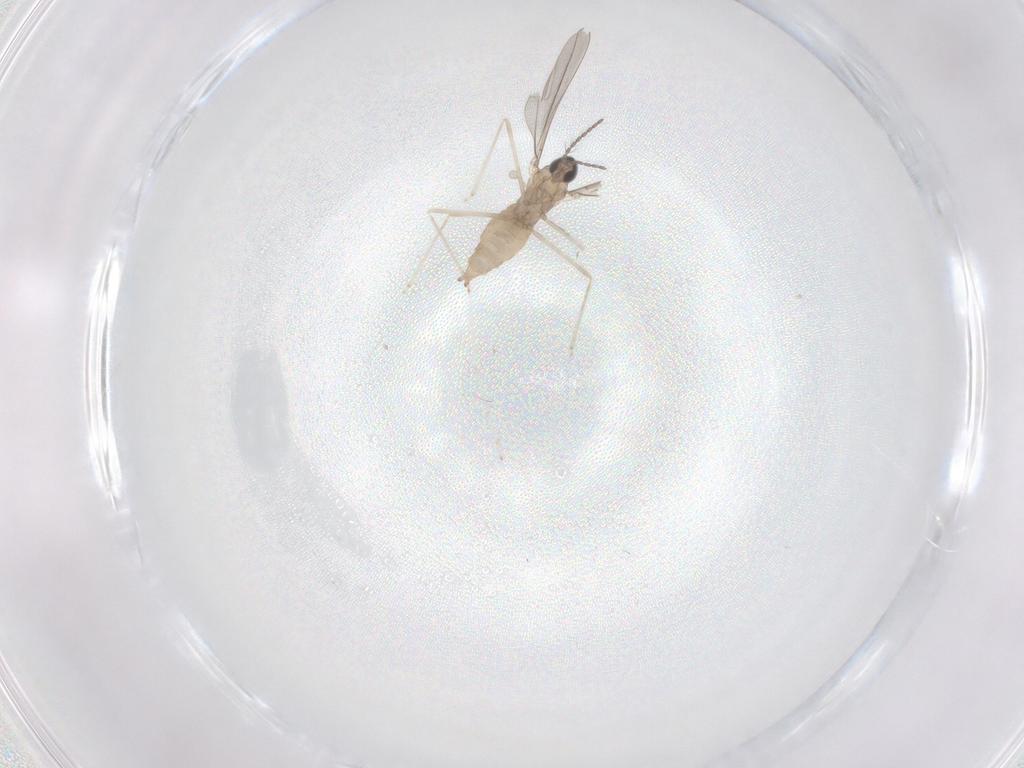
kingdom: Animalia
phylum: Arthropoda
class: Insecta
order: Diptera
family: Cecidomyiidae
